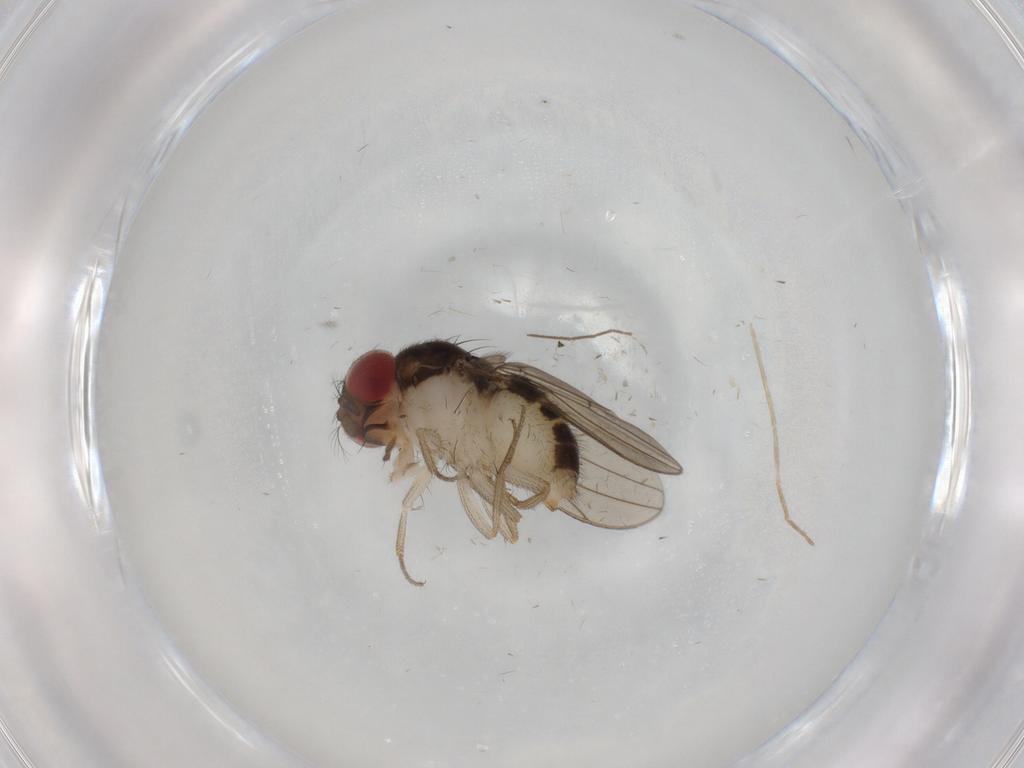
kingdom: Animalia
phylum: Arthropoda
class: Insecta
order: Diptera
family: Drosophilidae
